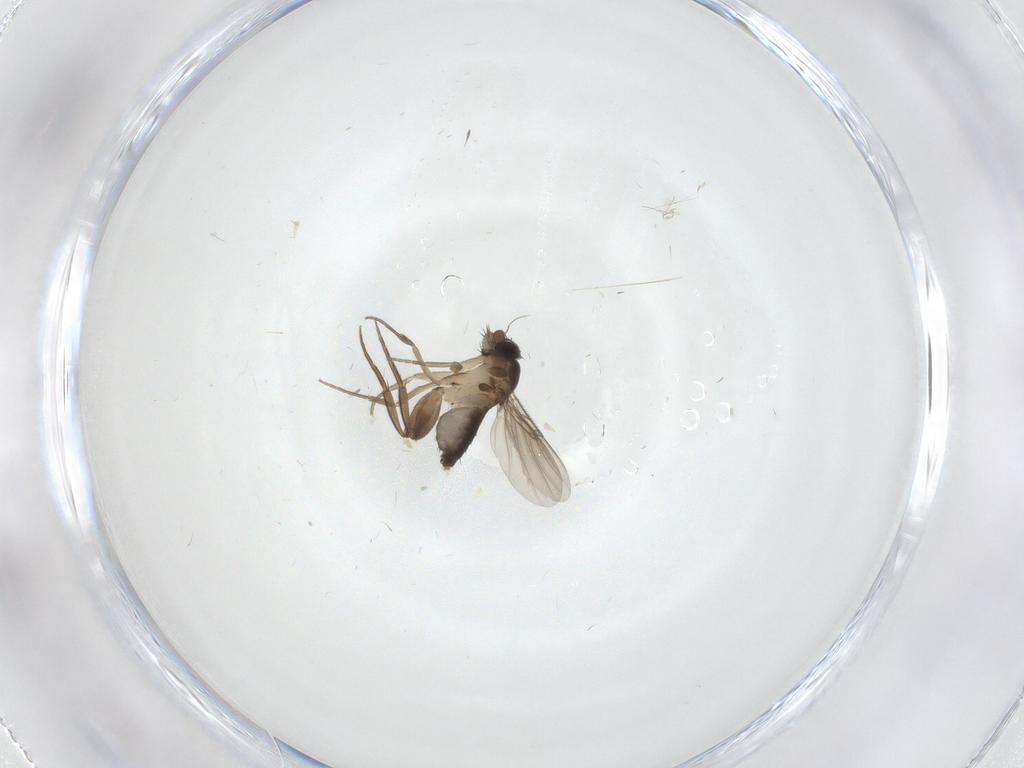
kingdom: Animalia
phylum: Arthropoda
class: Insecta
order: Diptera
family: Phoridae
